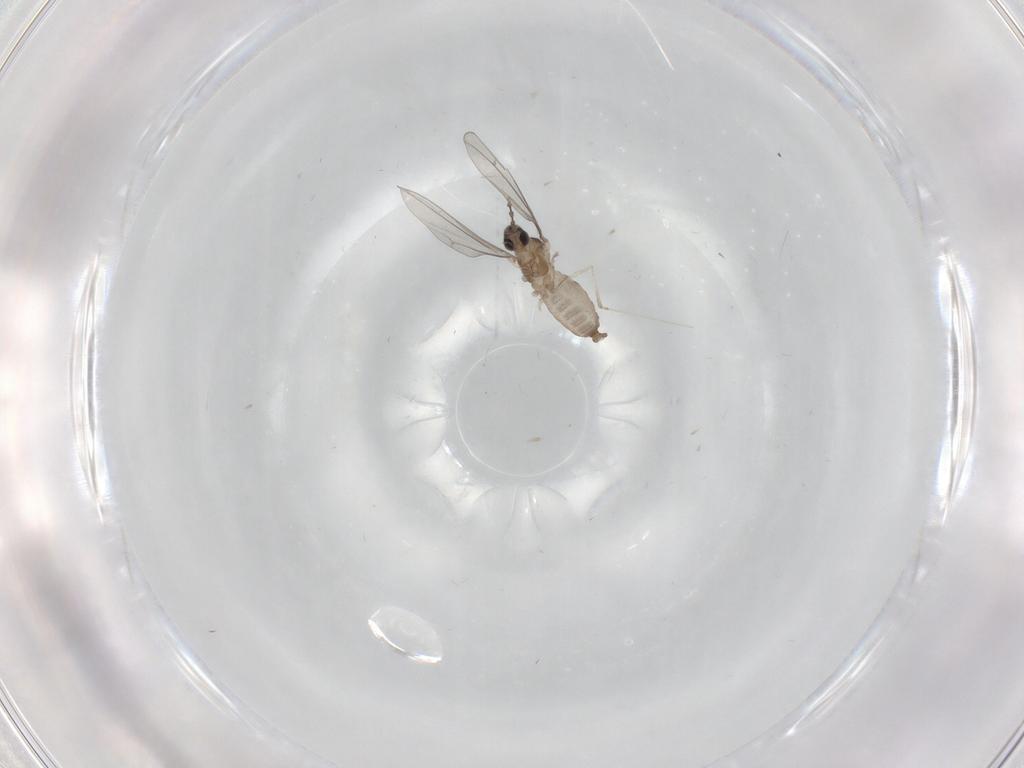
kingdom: Animalia
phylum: Arthropoda
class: Insecta
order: Diptera
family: Cecidomyiidae
